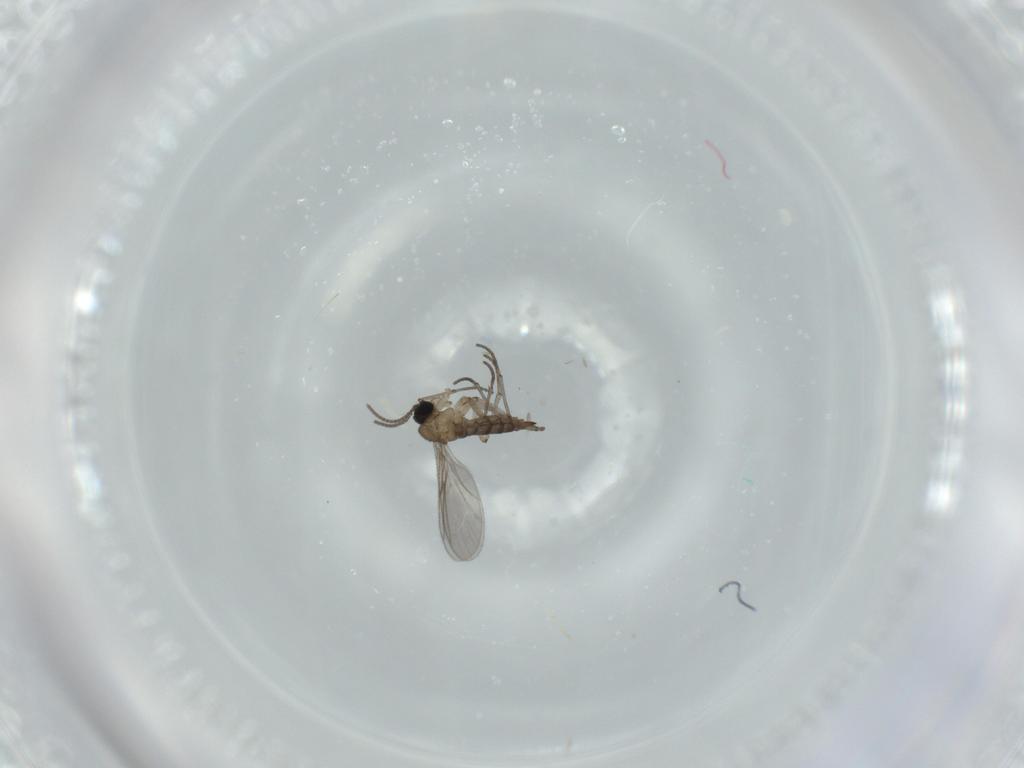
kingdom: Animalia
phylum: Arthropoda
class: Insecta
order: Diptera
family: Sciaridae
